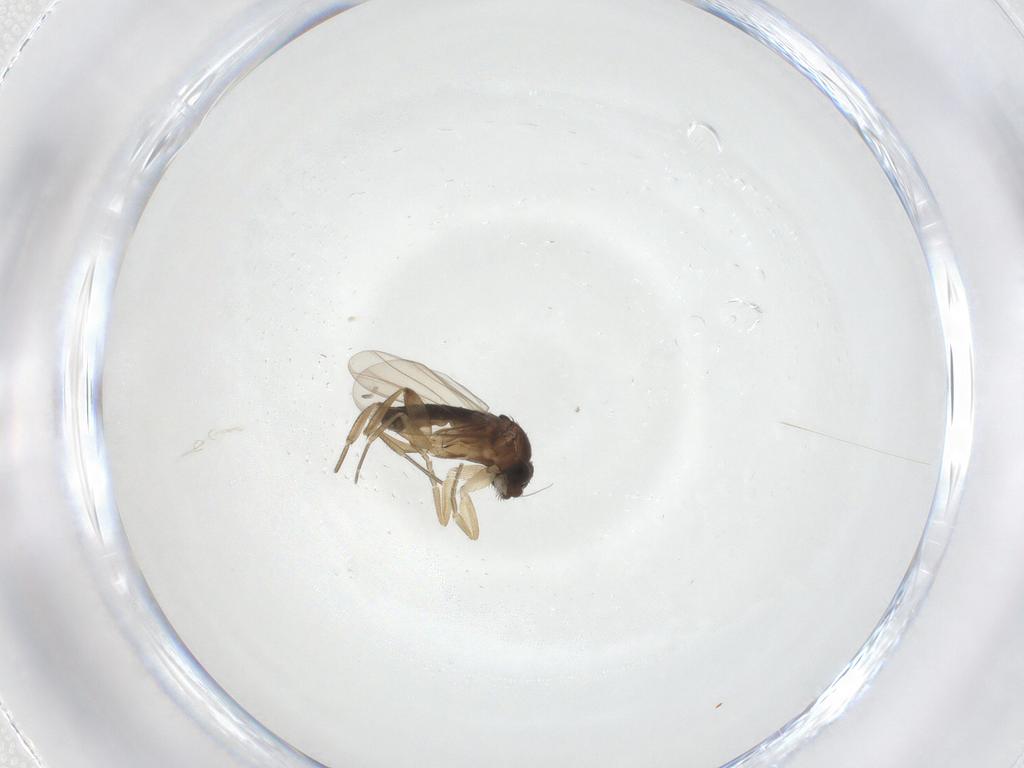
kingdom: Animalia
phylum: Arthropoda
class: Insecta
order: Diptera
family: Phoridae
